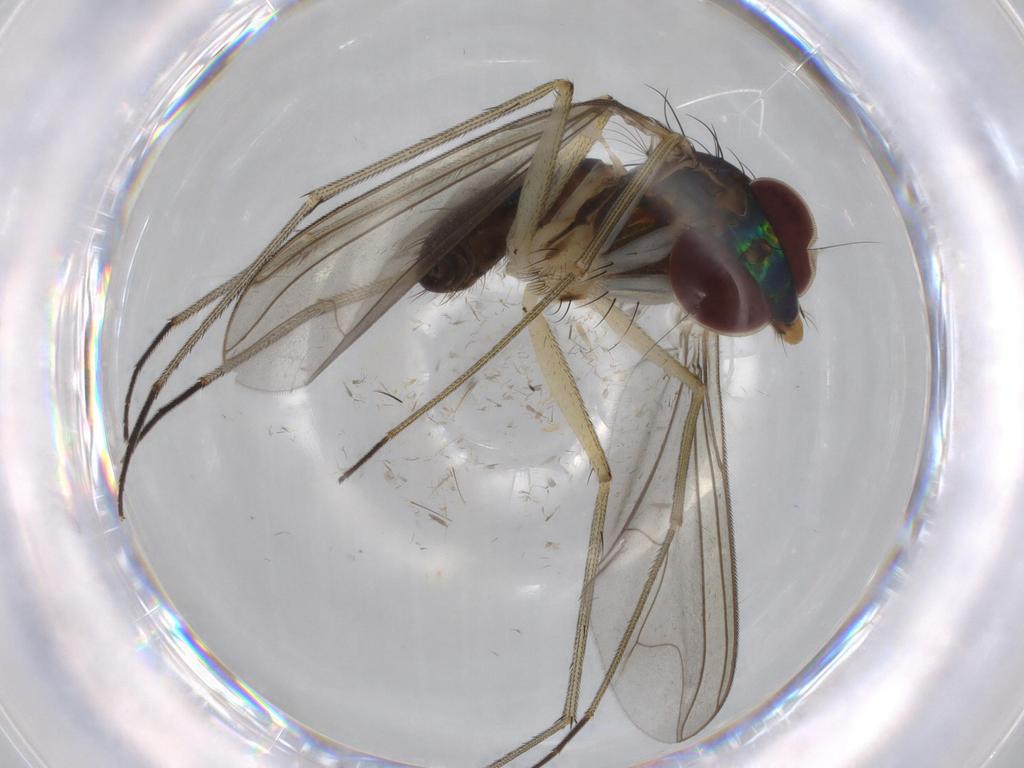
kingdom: Animalia
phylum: Arthropoda
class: Insecta
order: Diptera
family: Dolichopodidae
